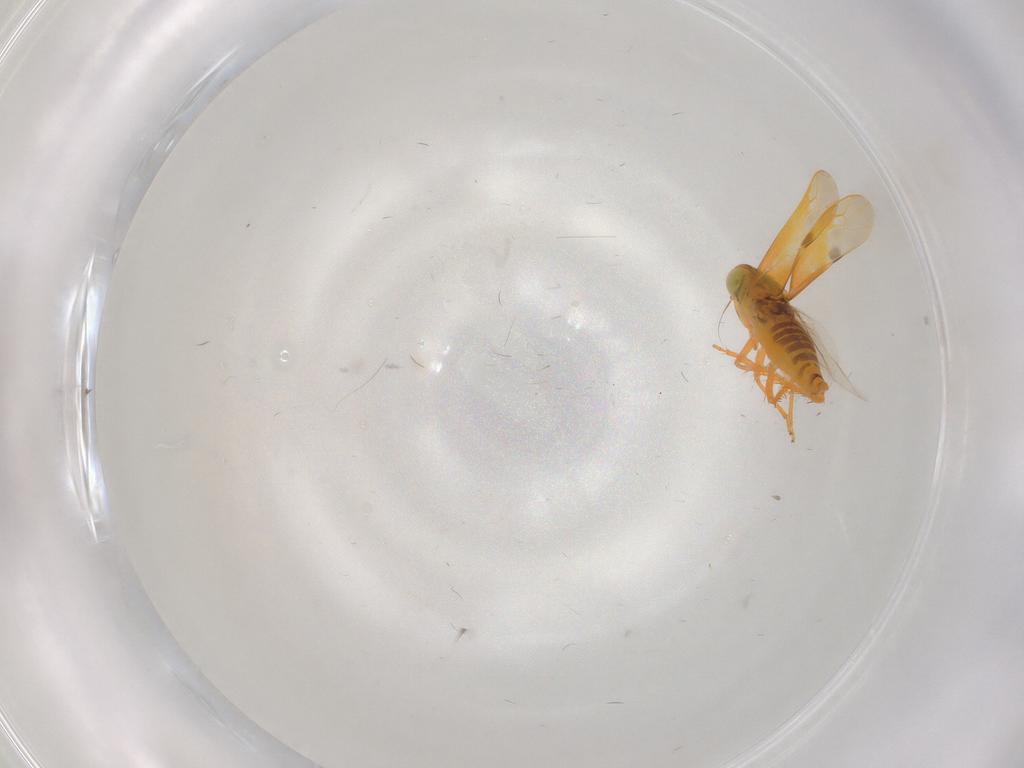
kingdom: Animalia
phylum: Arthropoda
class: Insecta
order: Hemiptera
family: Cicadellidae
